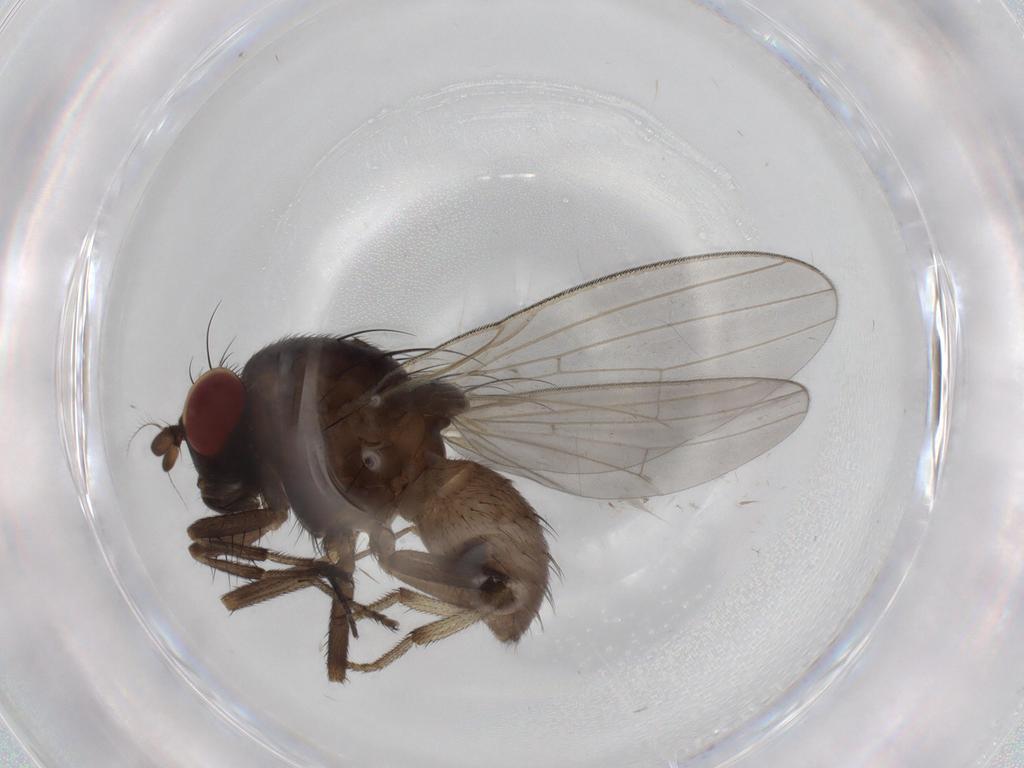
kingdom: Animalia
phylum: Arthropoda
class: Insecta
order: Diptera
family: Sciaridae
